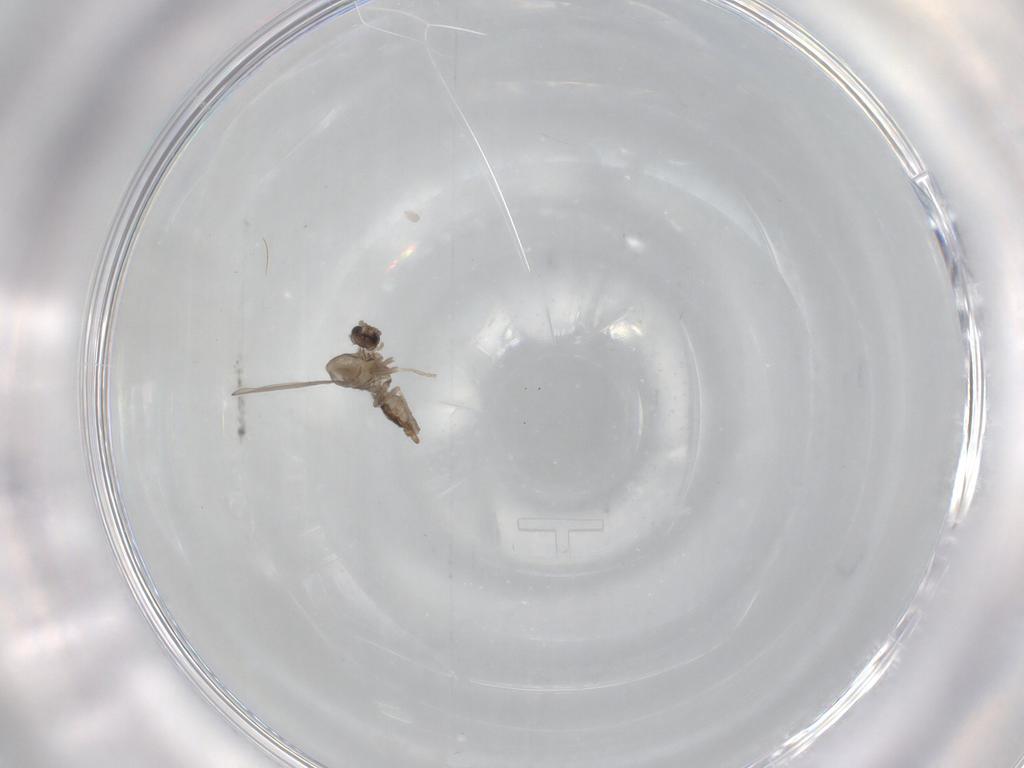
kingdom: Animalia
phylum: Arthropoda
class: Insecta
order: Diptera
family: Cecidomyiidae
